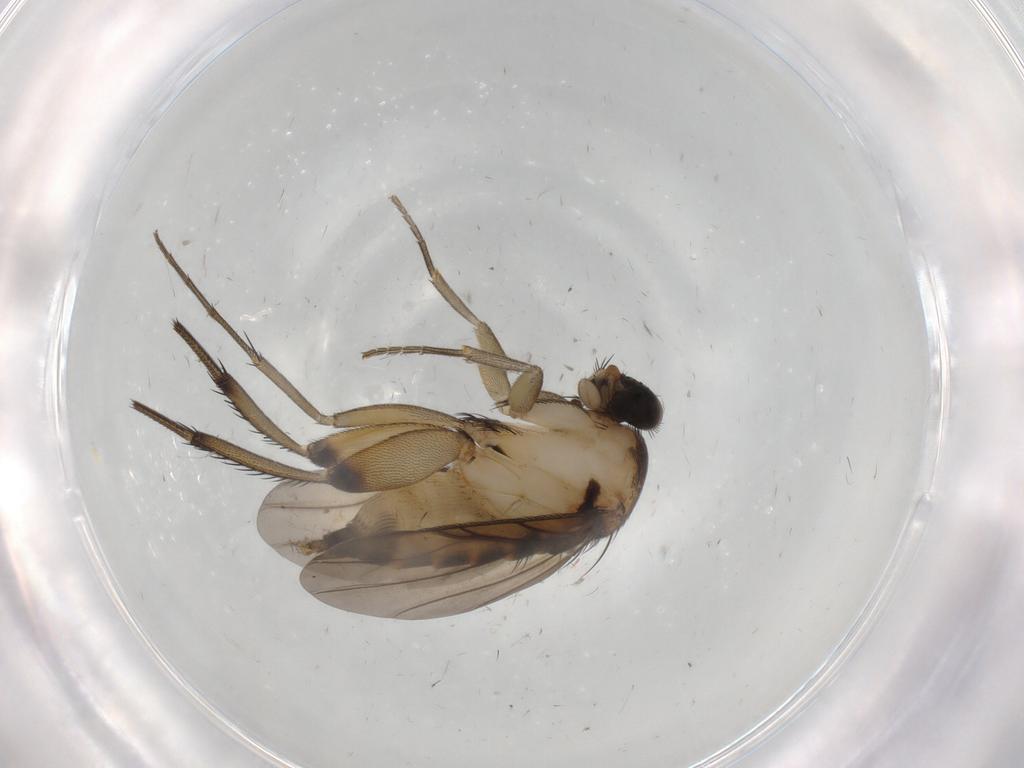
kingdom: Animalia
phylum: Arthropoda
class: Insecta
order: Diptera
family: Phoridae
